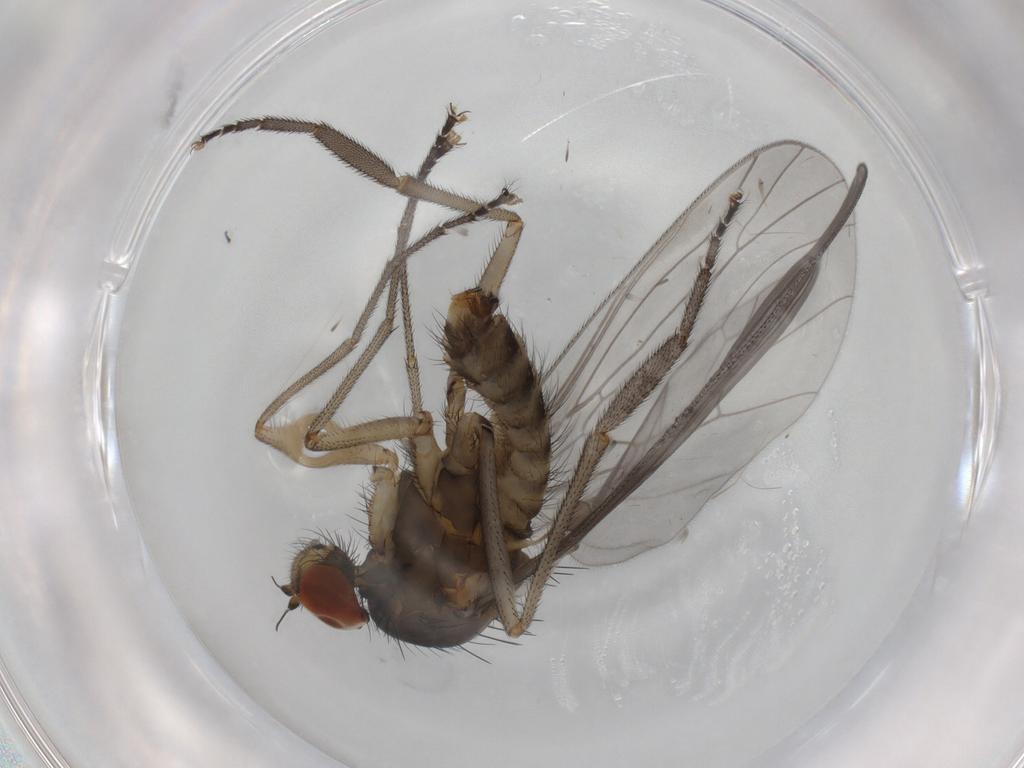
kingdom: Animalia
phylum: Arthropoda
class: Insecta
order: Diptera
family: Brachystomatidae
